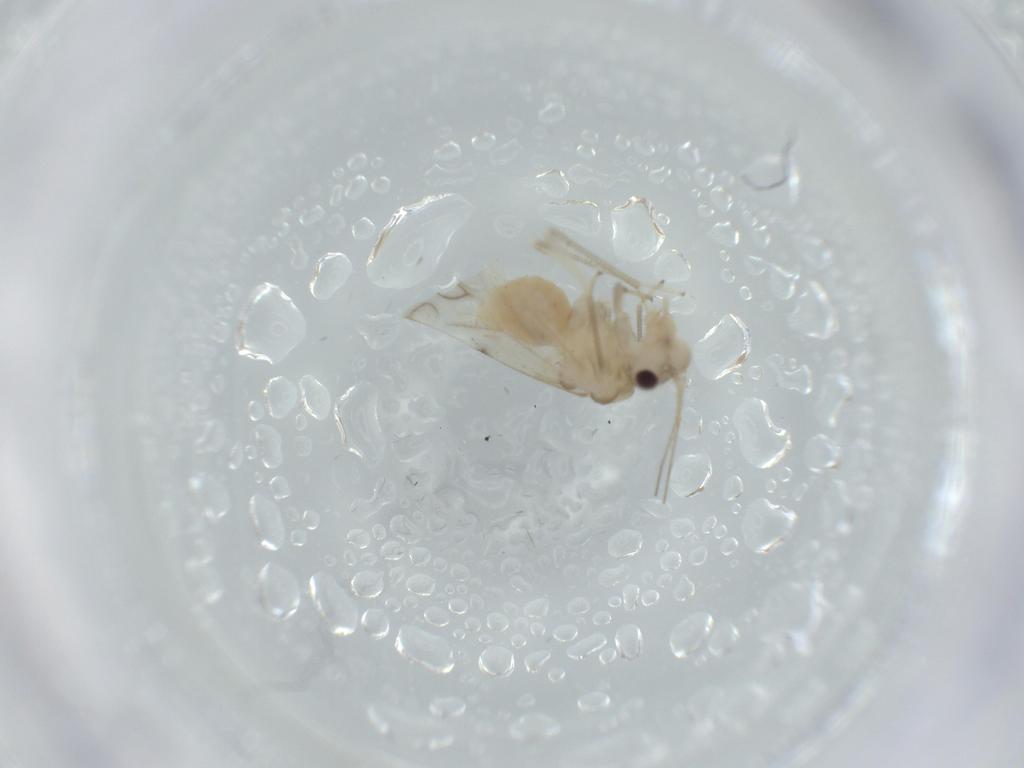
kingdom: Animalia
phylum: Arthropoda
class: Insecta
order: Psocodea
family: Caeciliusidae
